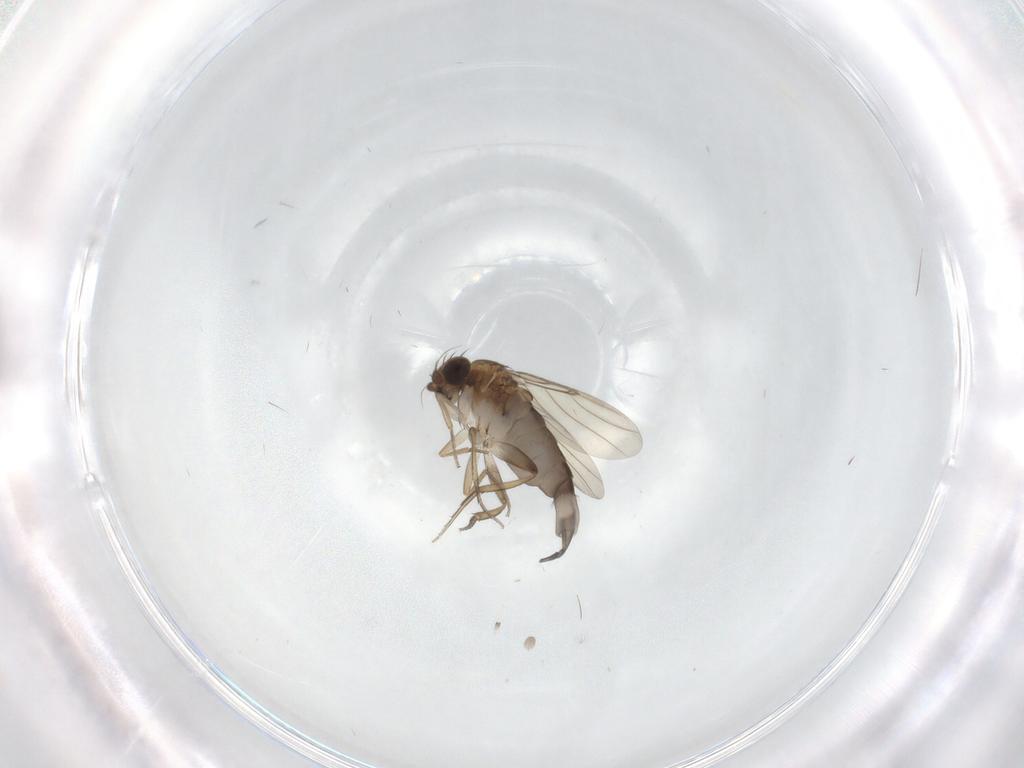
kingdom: Animalia
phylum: Arthropoda
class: Insecta
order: Diptera
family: Phoridae
